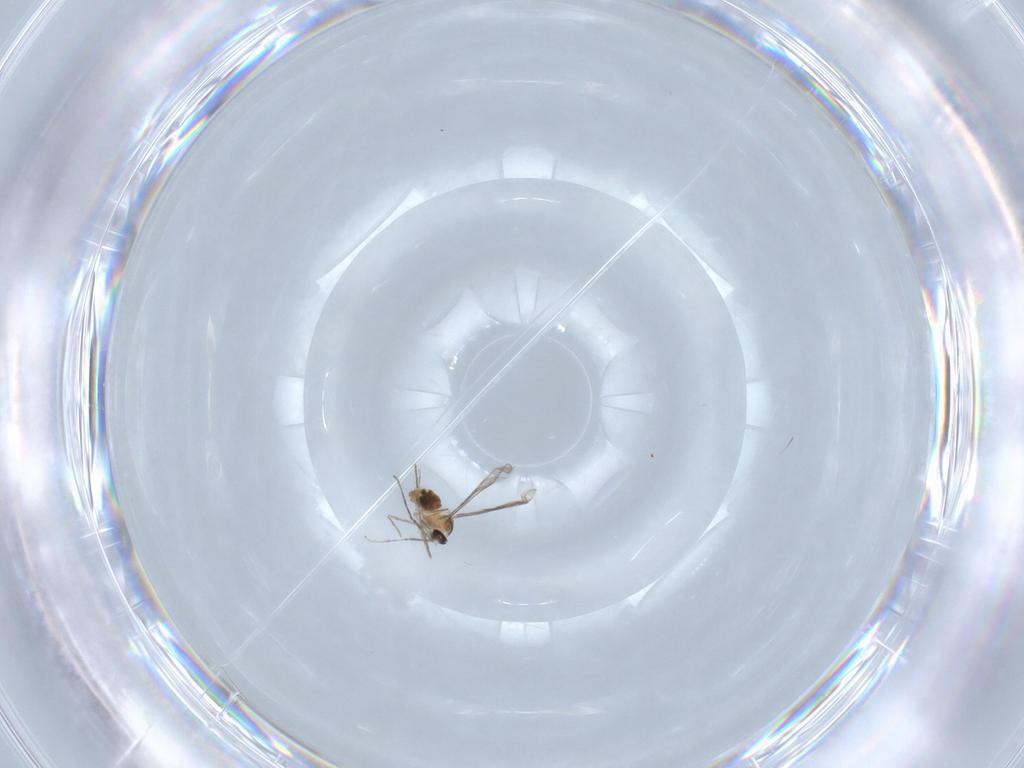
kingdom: Animalia
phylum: Arthropoda
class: Insecta
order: Diptera
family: Cecidomyiidae
